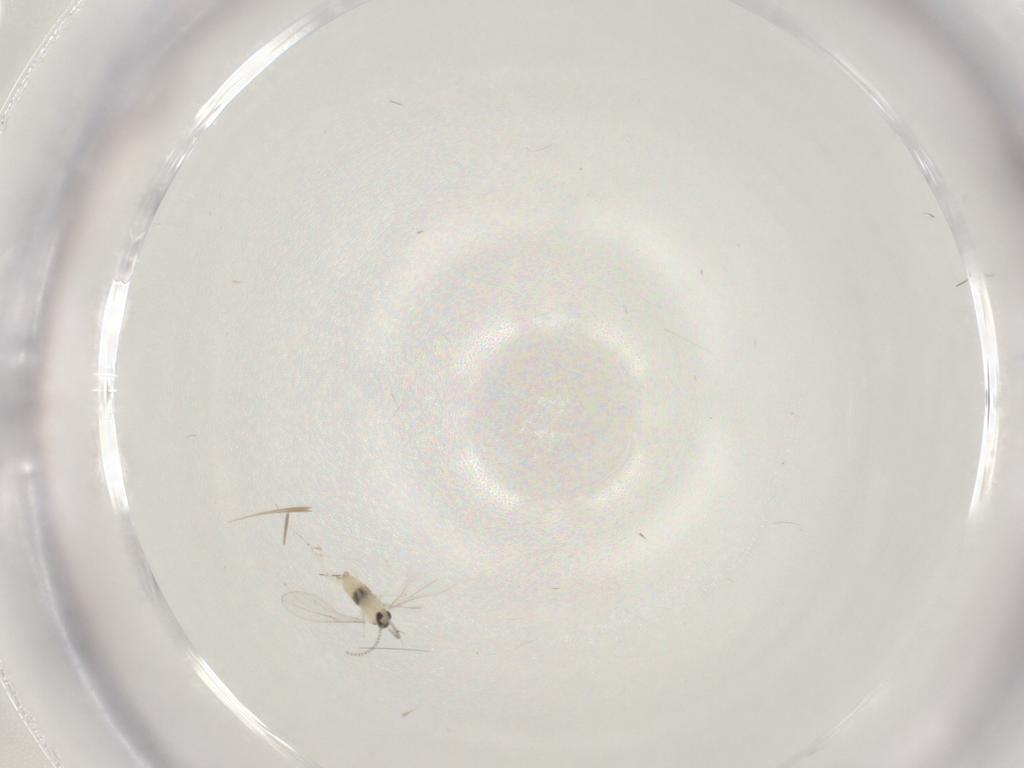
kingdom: Animalia
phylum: Arthropoda
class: Insecta
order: Diptera
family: Cecidomyiidae
